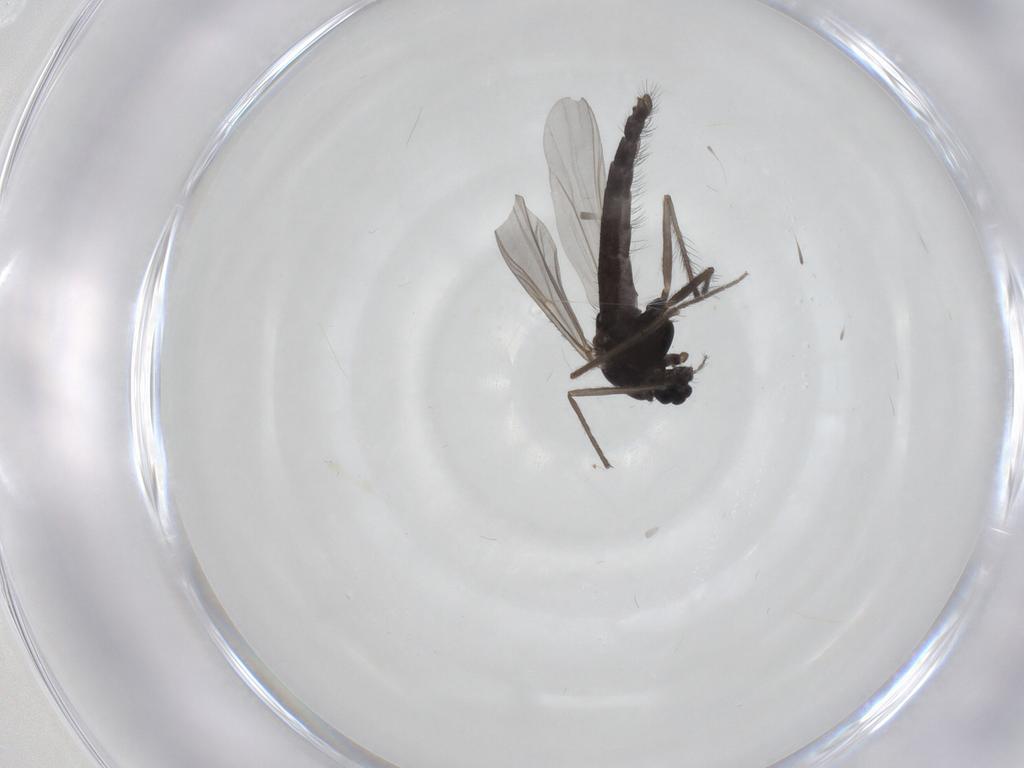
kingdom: Animalia
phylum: Arthropoda
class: Insecta
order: Diptera
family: Chironomidae
